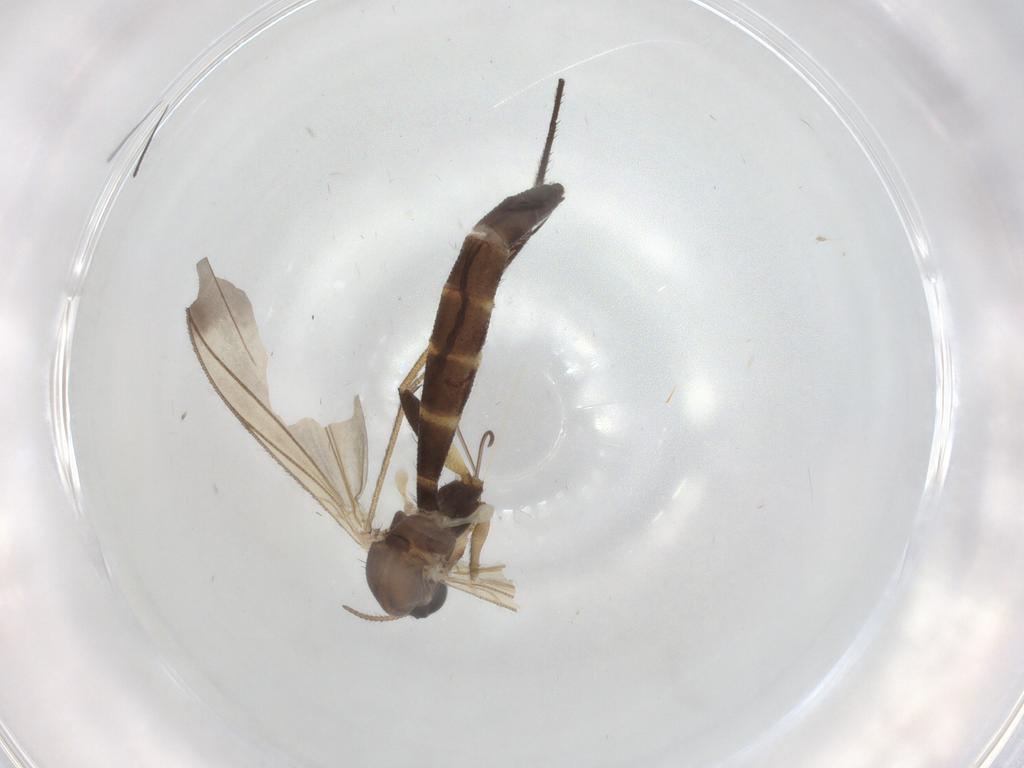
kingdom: Animalia
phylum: Arthropoda
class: Insecta
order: Diptera
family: Keroplatidae
